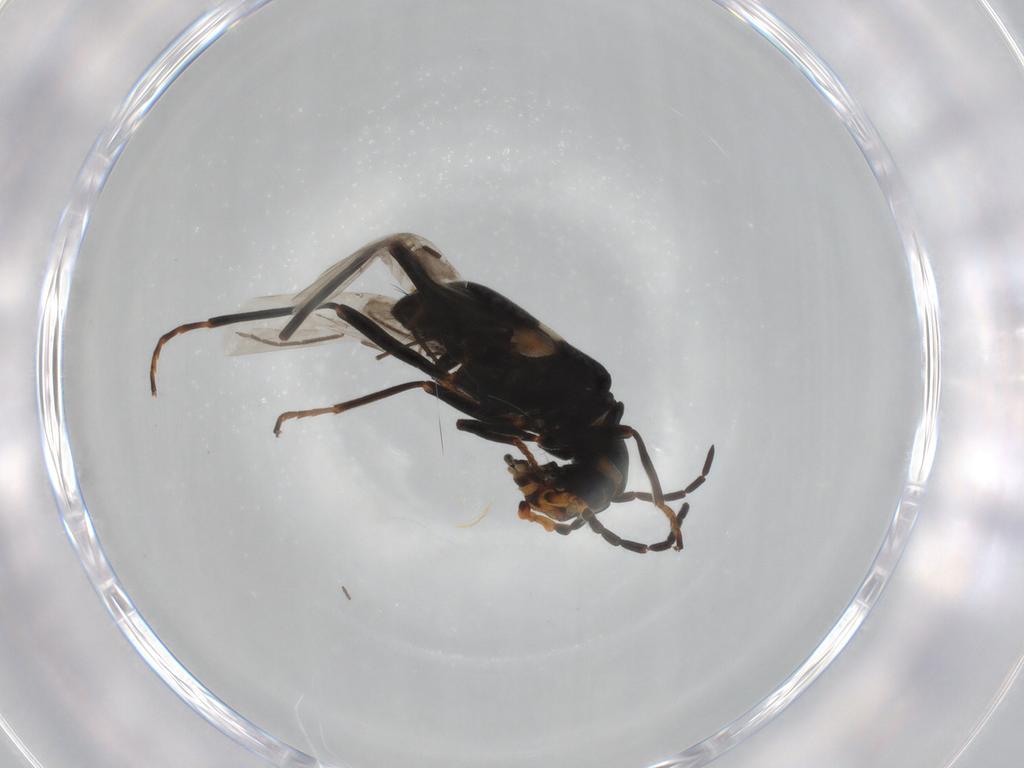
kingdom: Animalia
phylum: Arthropoda
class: Insecta
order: Coleoptera
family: Melyridae
